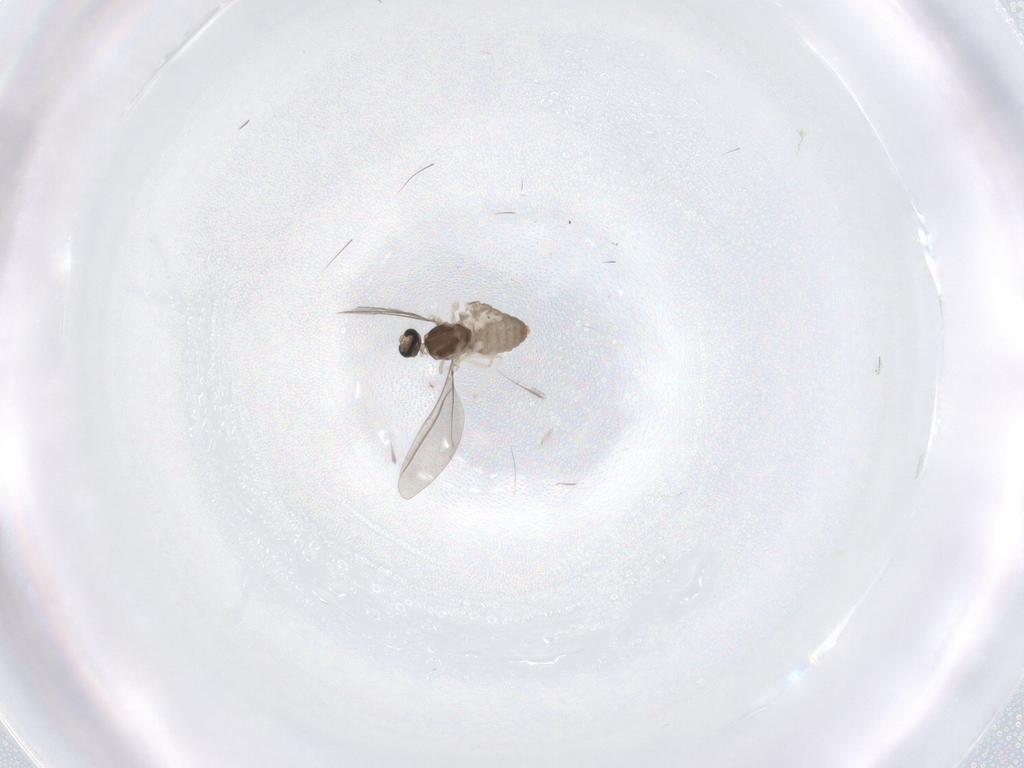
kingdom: Animalia
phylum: Arthropoda
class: Insecta
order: Diptera
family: Cecidomyiidae
